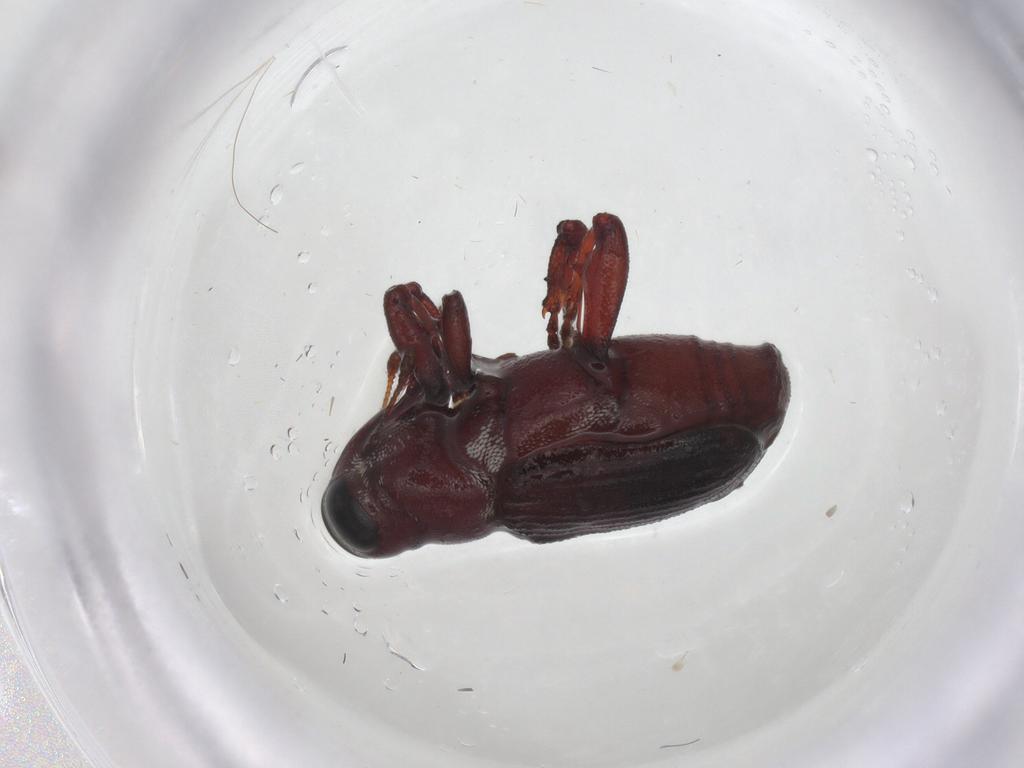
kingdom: Animalia
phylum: Arthropoda
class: Insecta
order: Coleoptera
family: Curculionidae
